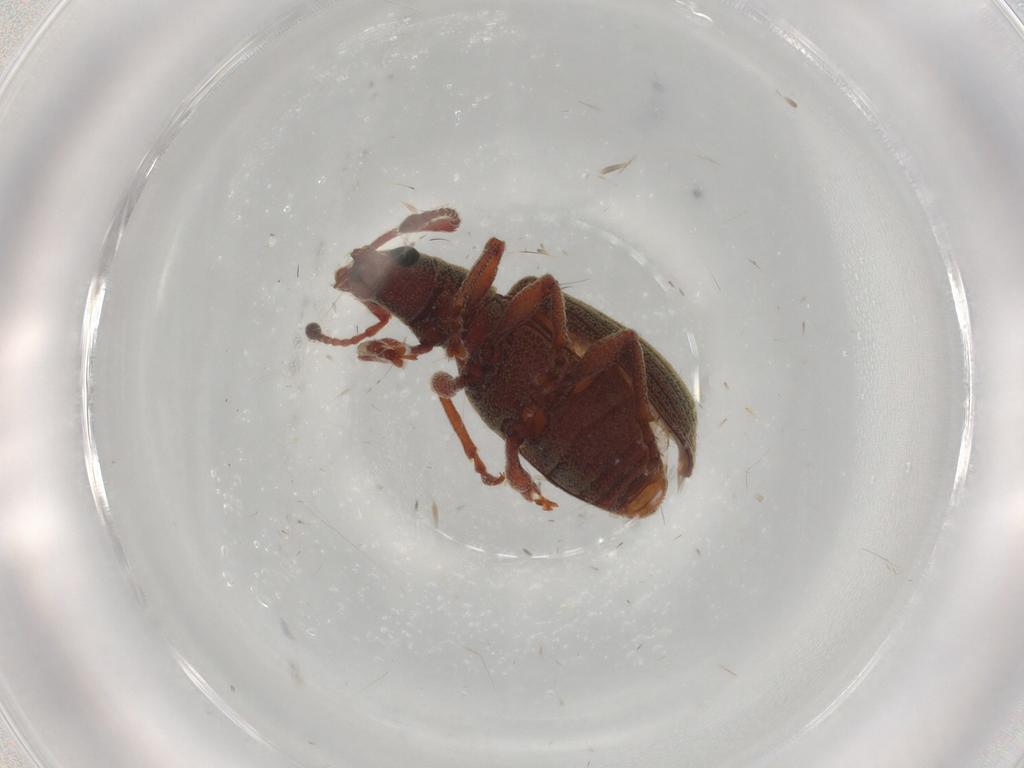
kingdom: Animalia
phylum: Arthropoda
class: Insecta
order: Coleoptera
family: Curculionidae
